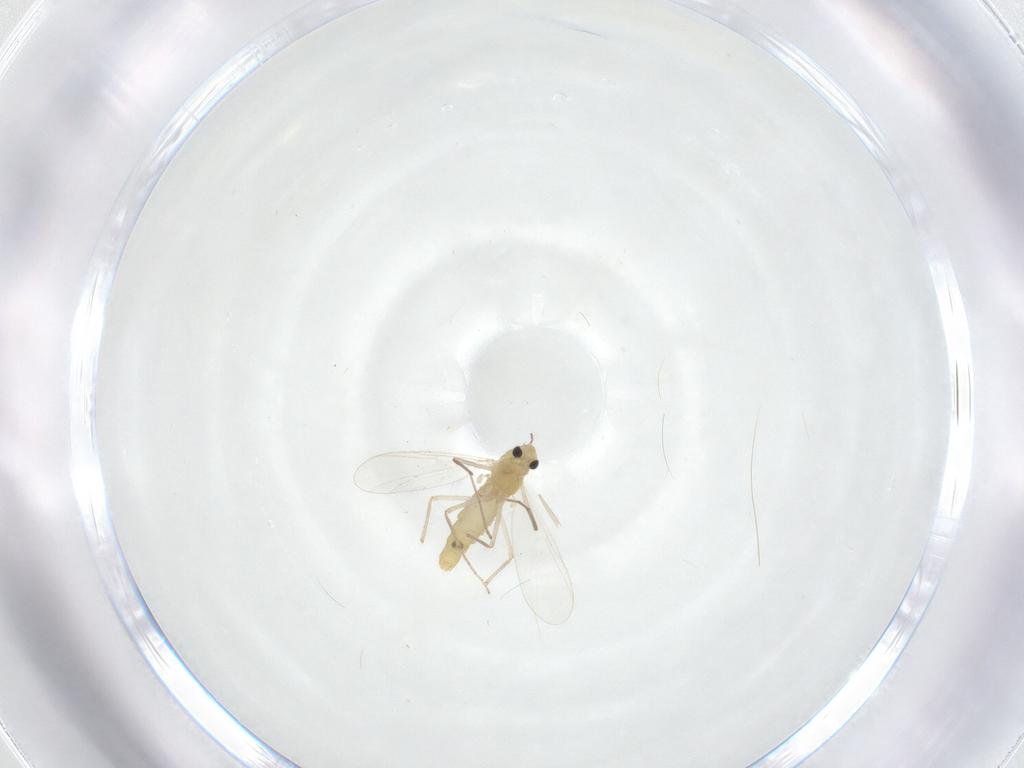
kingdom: Animalia
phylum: Arthropoda
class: Insecta
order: Diptera
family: Chironomidae
